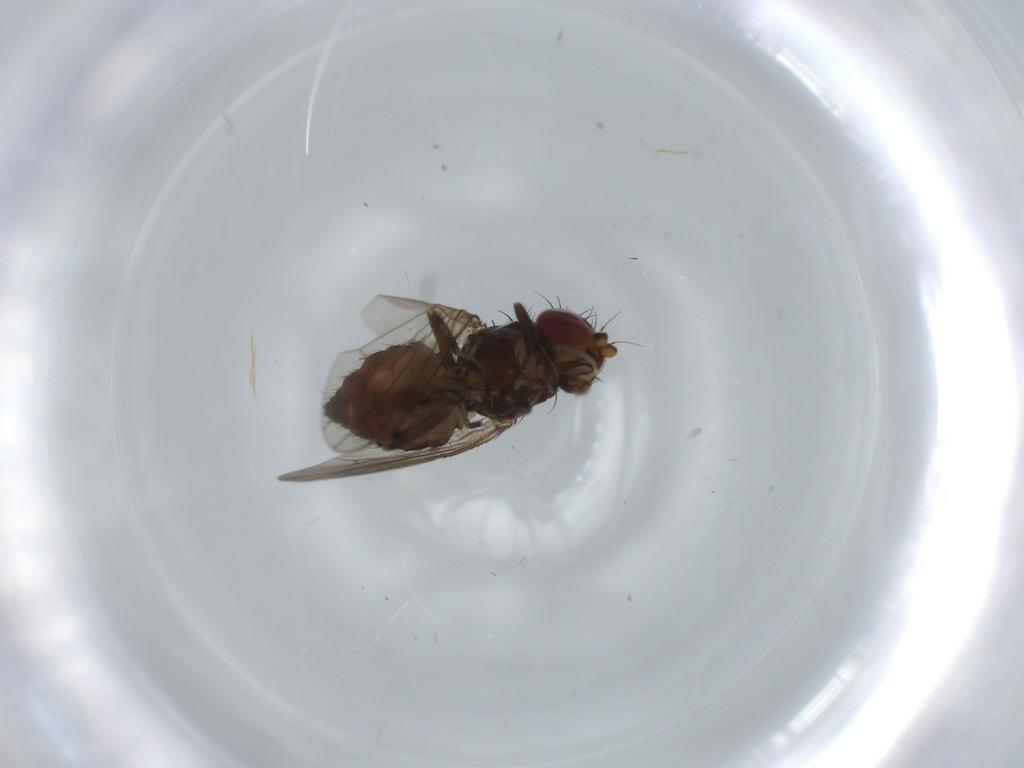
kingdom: Animalia
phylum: Arthropoda
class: Insecta
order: Diptera
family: Heleomyzidae
